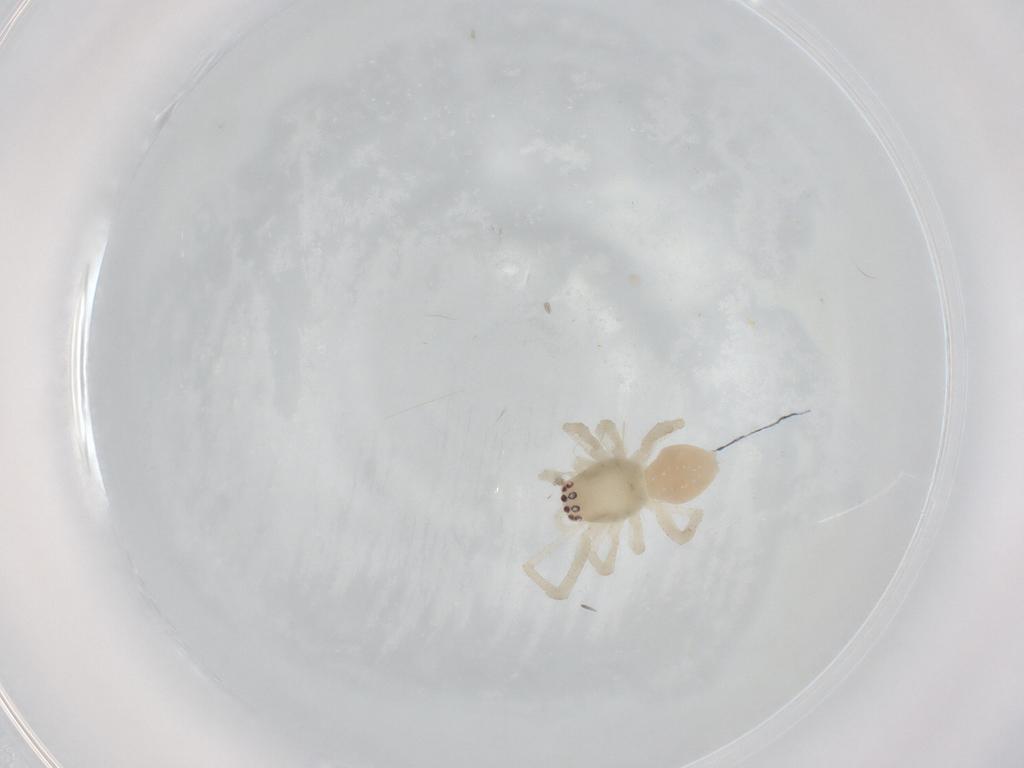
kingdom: Animalia
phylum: Arthropoda
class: Arachnida
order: Araneae
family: Cheiracanthiidae
